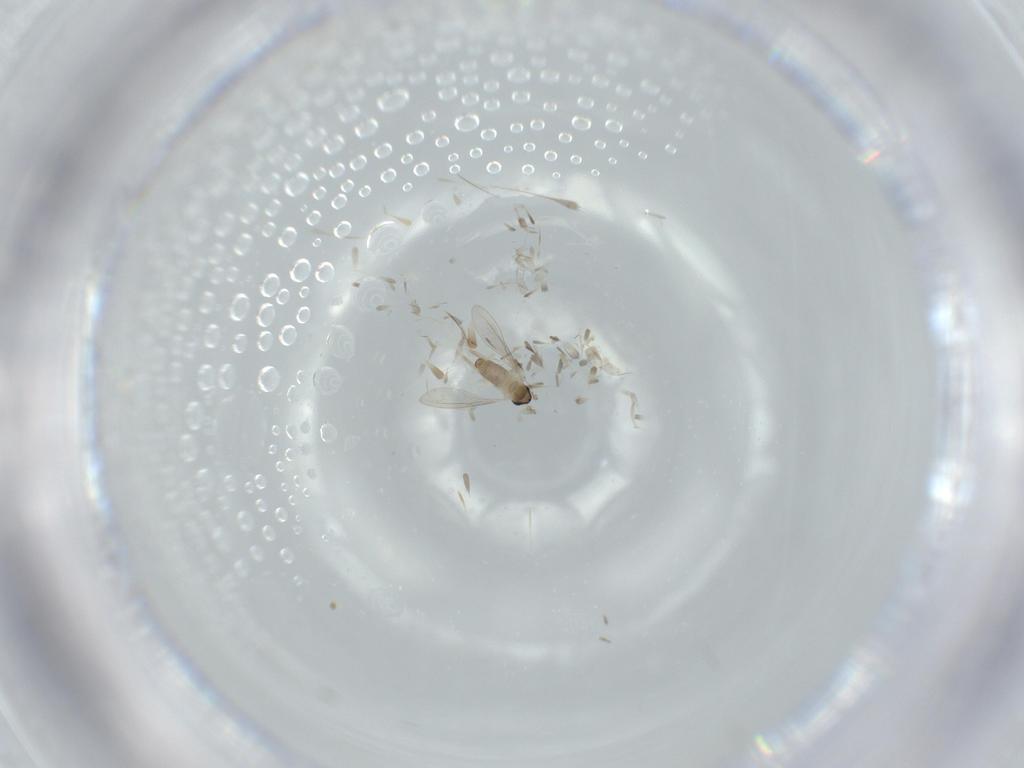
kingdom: Animalia
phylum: Arthropoda
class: Insecta
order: Diptera
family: Cecidomyiidae
